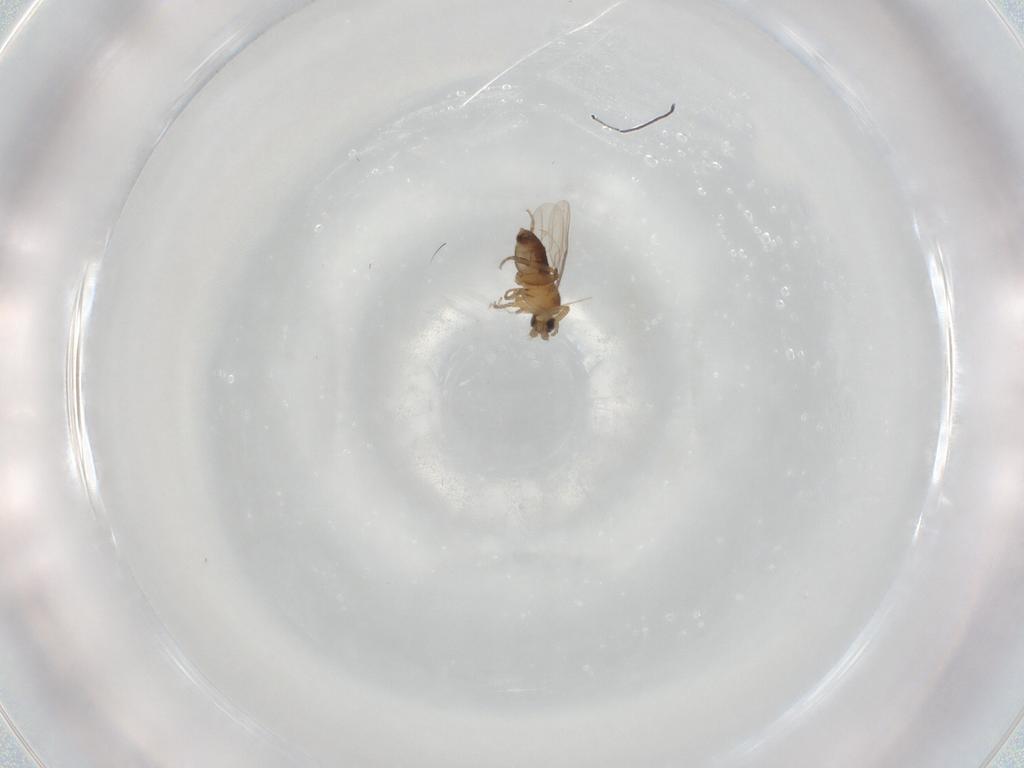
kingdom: Animalia
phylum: Arthropoda
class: Insecta
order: Diptera
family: Phoridae
